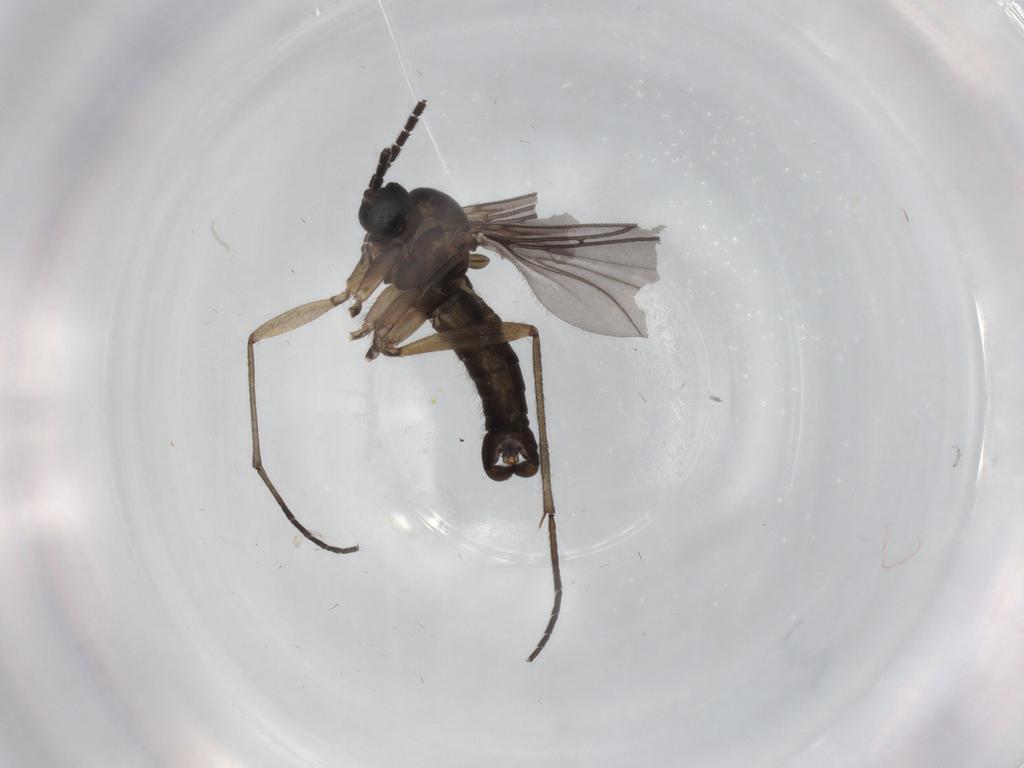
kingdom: Animalia
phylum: Arthropoda
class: Insecta
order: Diptera
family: Sciaridae
